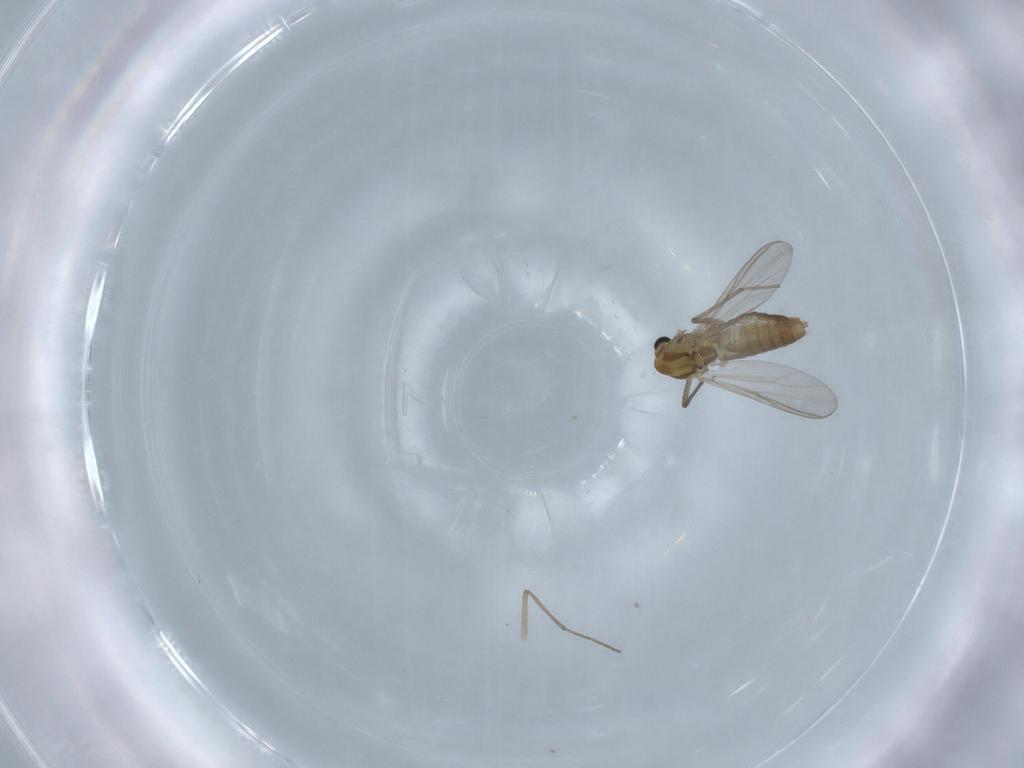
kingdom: Animalia
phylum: Arthropoda
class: Insecta
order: Diptera
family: Chironomidae
